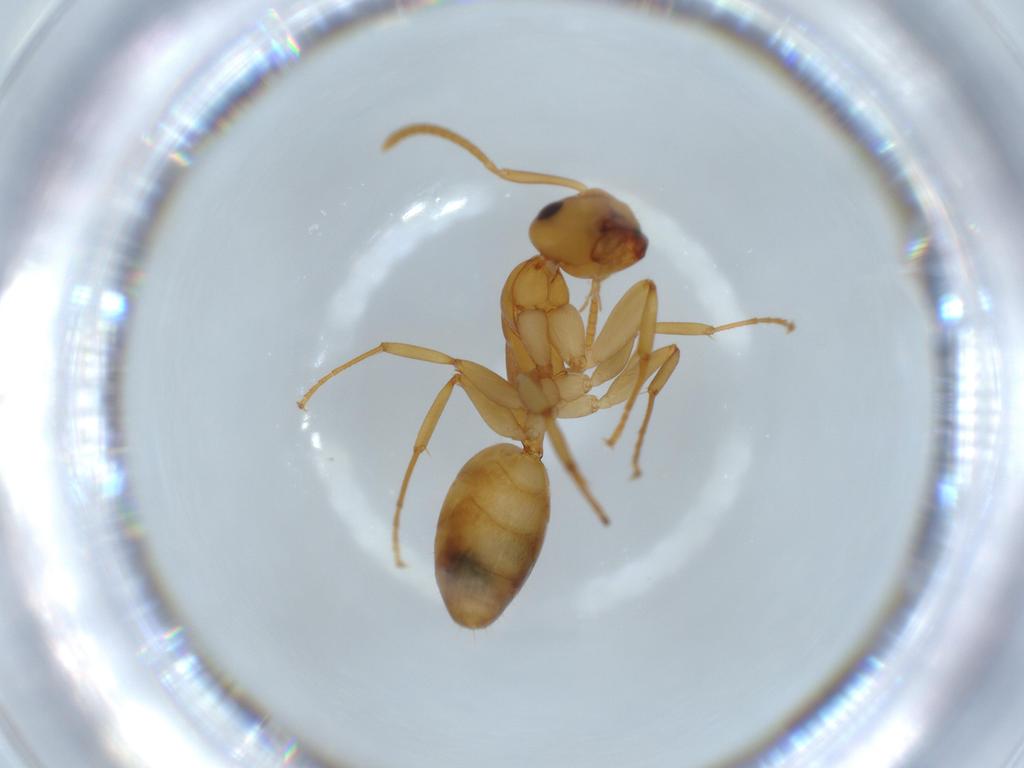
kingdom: Animalia
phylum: Arthropoda
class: Insecta
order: Hymenoptera
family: Formicidae
